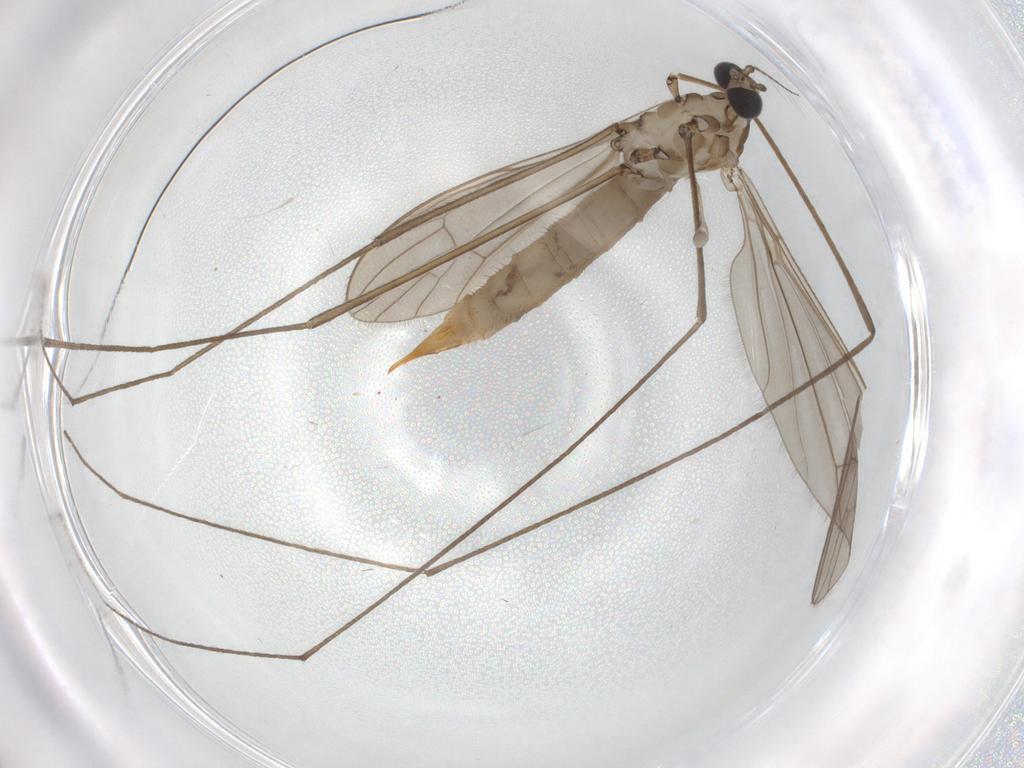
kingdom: Animalia
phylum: Arthropoda
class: Insecta
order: Diptera
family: Limoniidae
